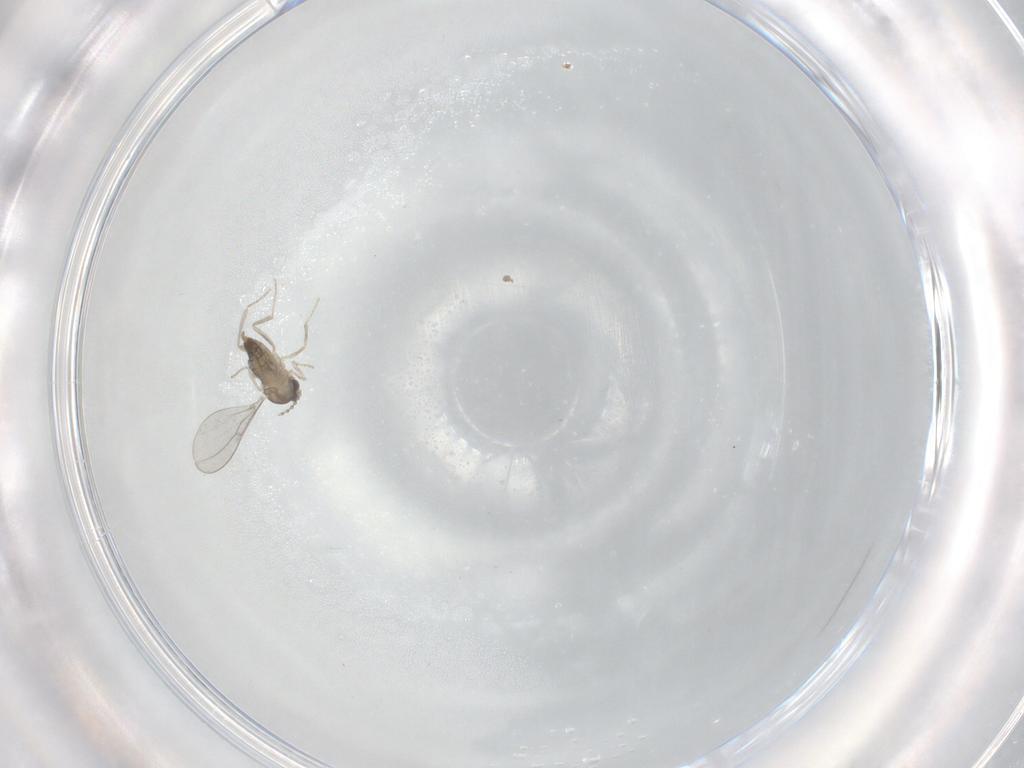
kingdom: Animalia
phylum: Arthropoda
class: Insecta
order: Diptera
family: Cecidomyiidae
